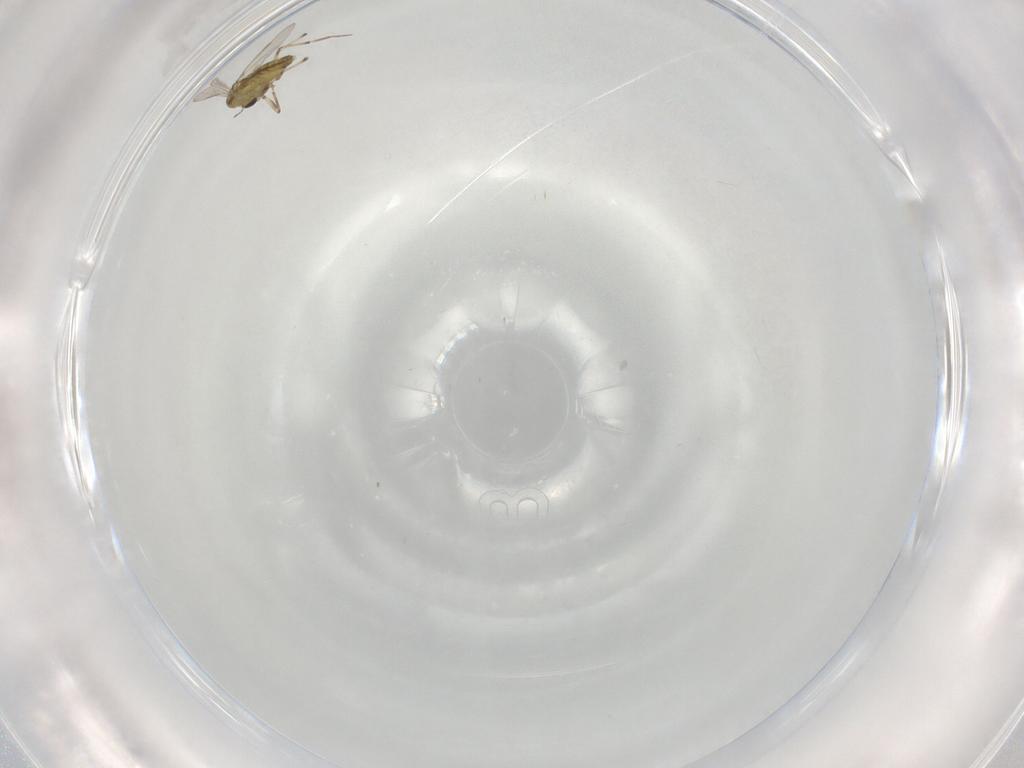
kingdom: Animalia
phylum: Arthropoda
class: Insecta
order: Diptera
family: Chironomidae
